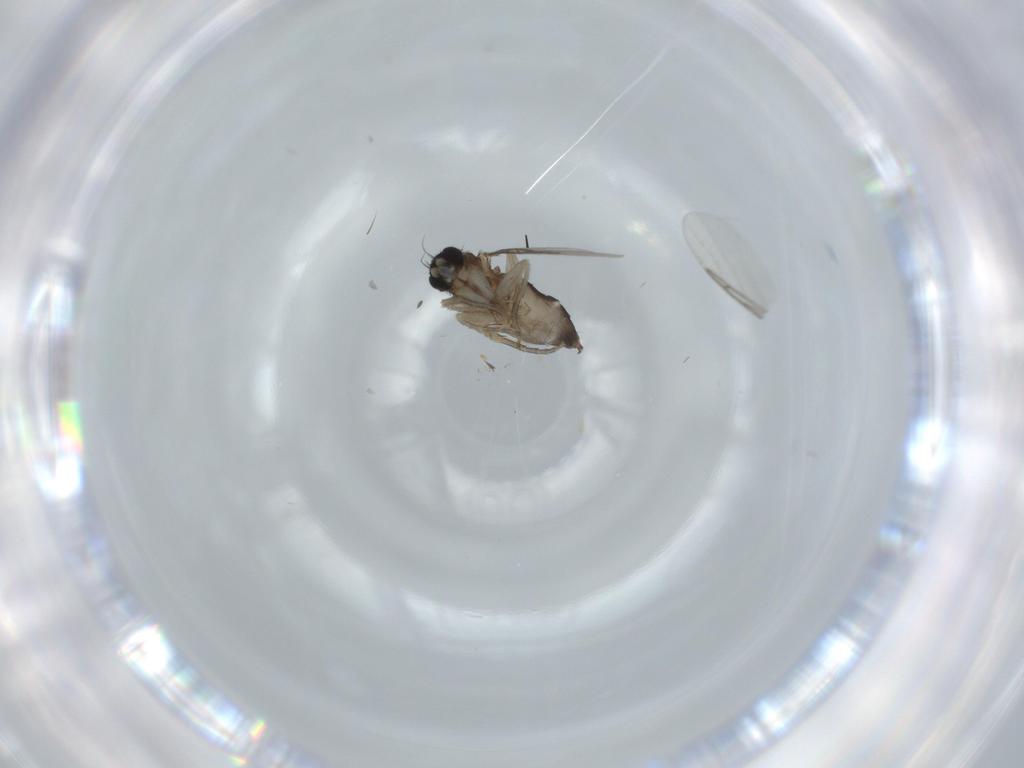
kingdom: Animalia
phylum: Arthropoda
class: Insecta
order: Diptera
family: Phoridae
